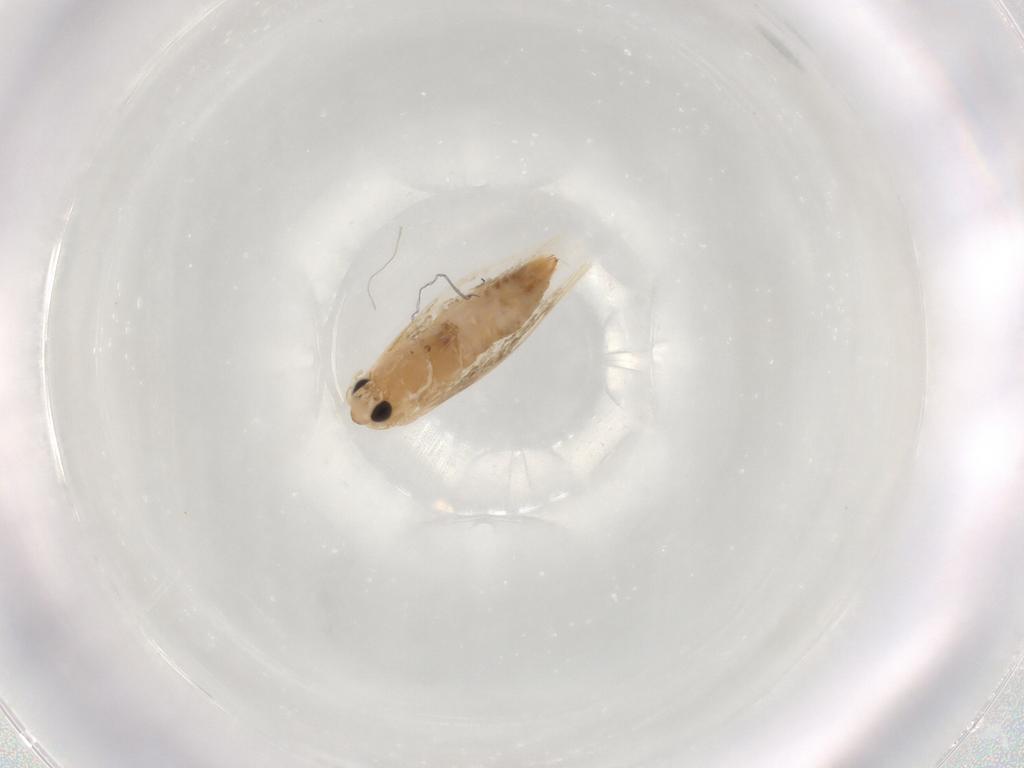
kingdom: Animalia
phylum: Arthropoda
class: Insecta
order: Lepidoptera
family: Bucculatricidae
